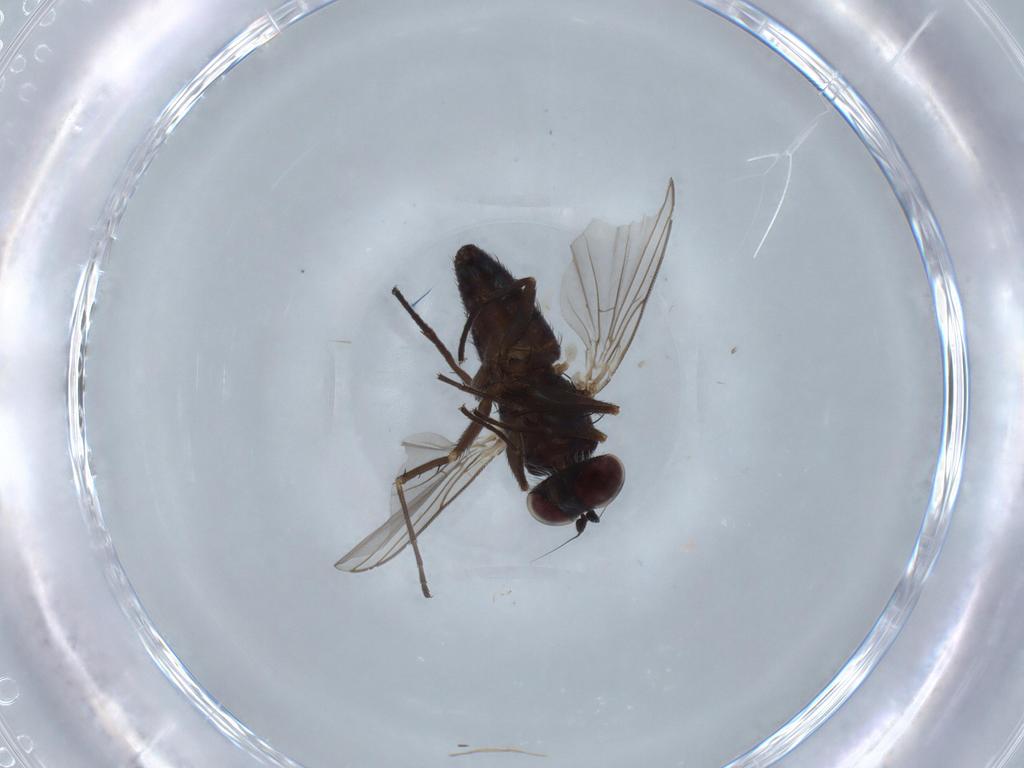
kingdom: Animalia
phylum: Arthropoda
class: Insecta
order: Diptera
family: Dolichopodidae
